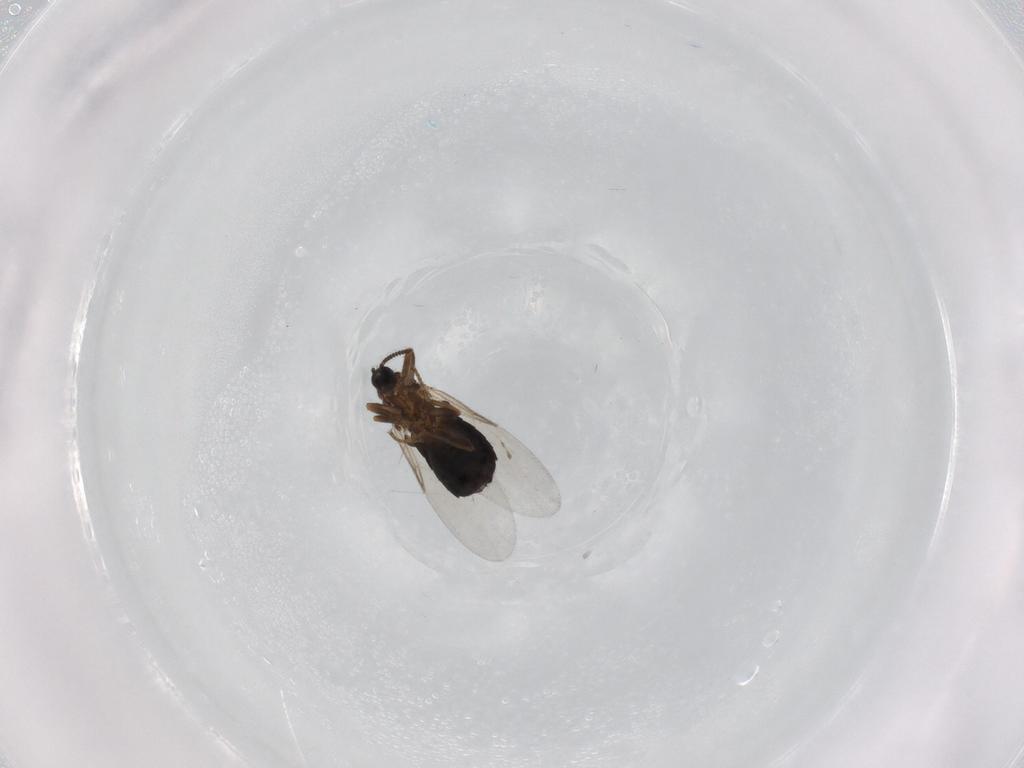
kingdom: Animalia
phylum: Arthropoda
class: Insecta
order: Diptera
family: Scatopsidae
